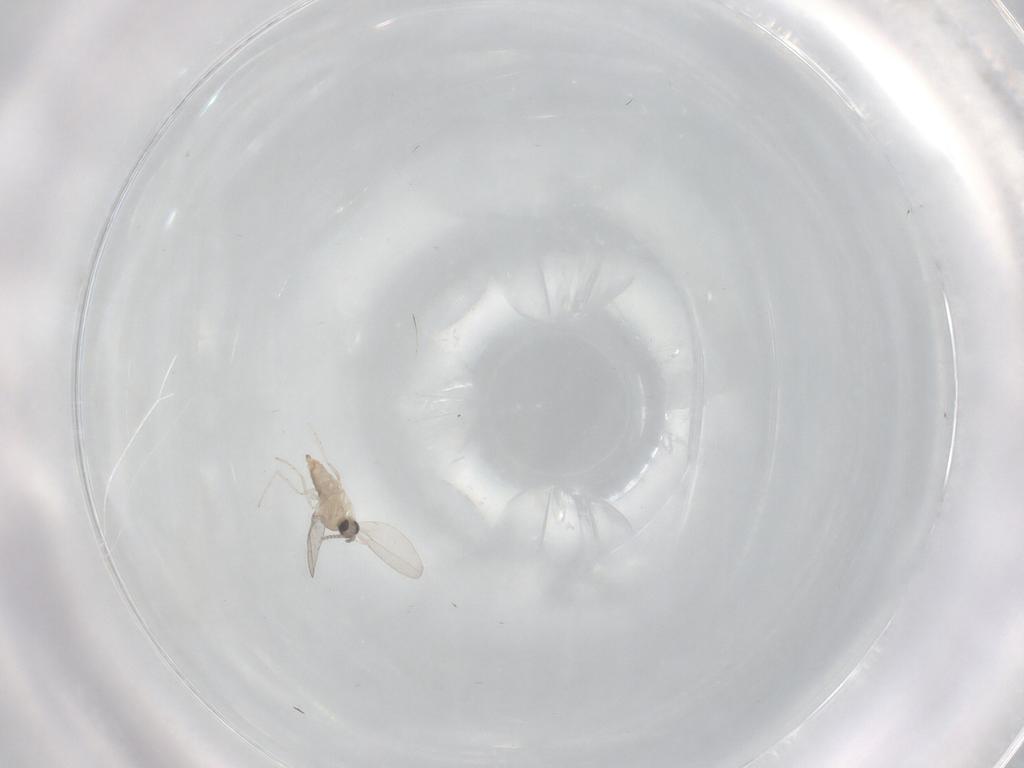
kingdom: Animalia
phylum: Arthropoda
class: Insecta
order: Diptera
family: Cecidomyiidae
